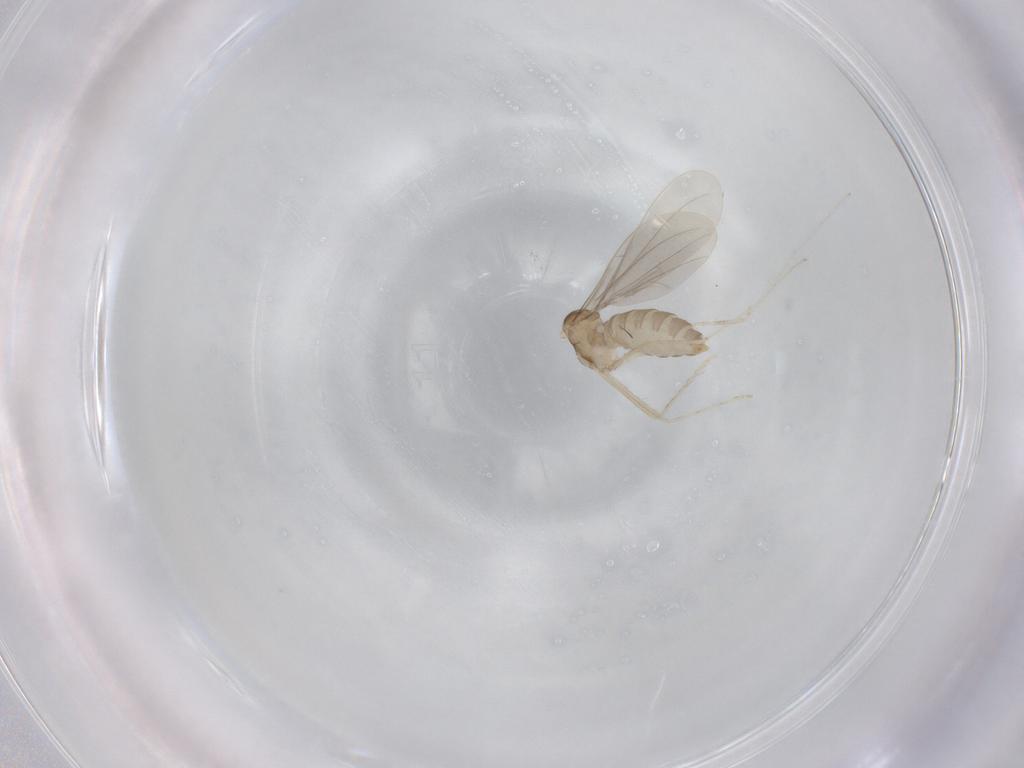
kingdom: Animalia
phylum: Arthropoda
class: Insecta
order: Diptera
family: Cecidomyiidae
